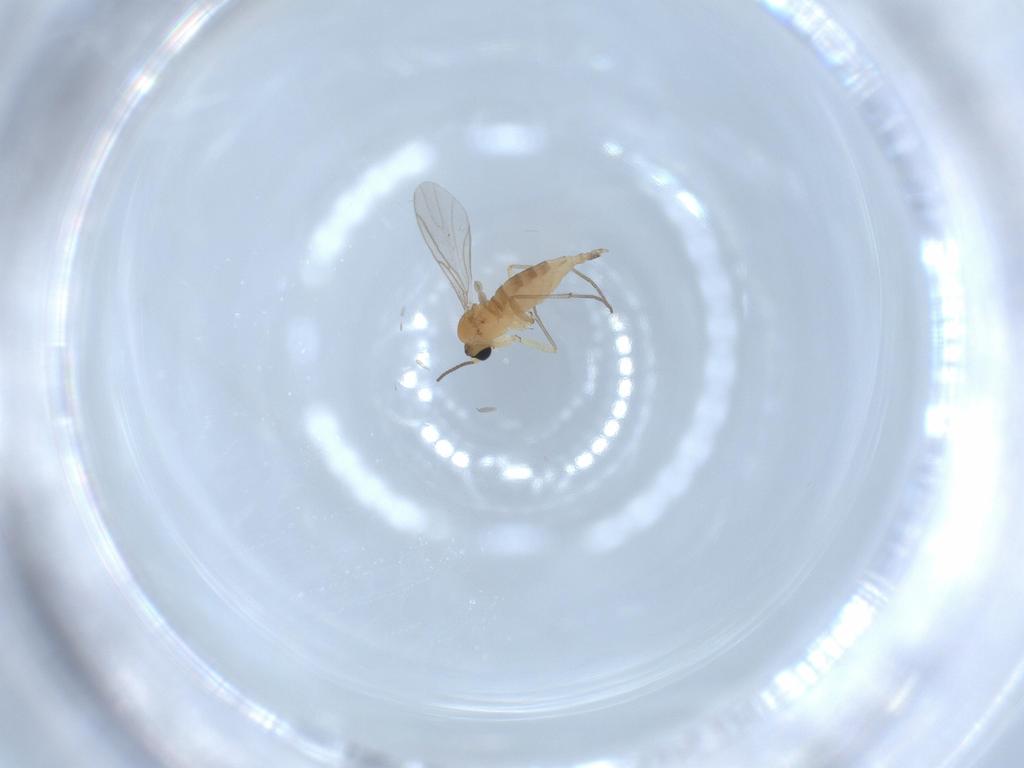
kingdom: Animalia
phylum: Arthropoda
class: Insecta
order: Diptera
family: Sciaridae
